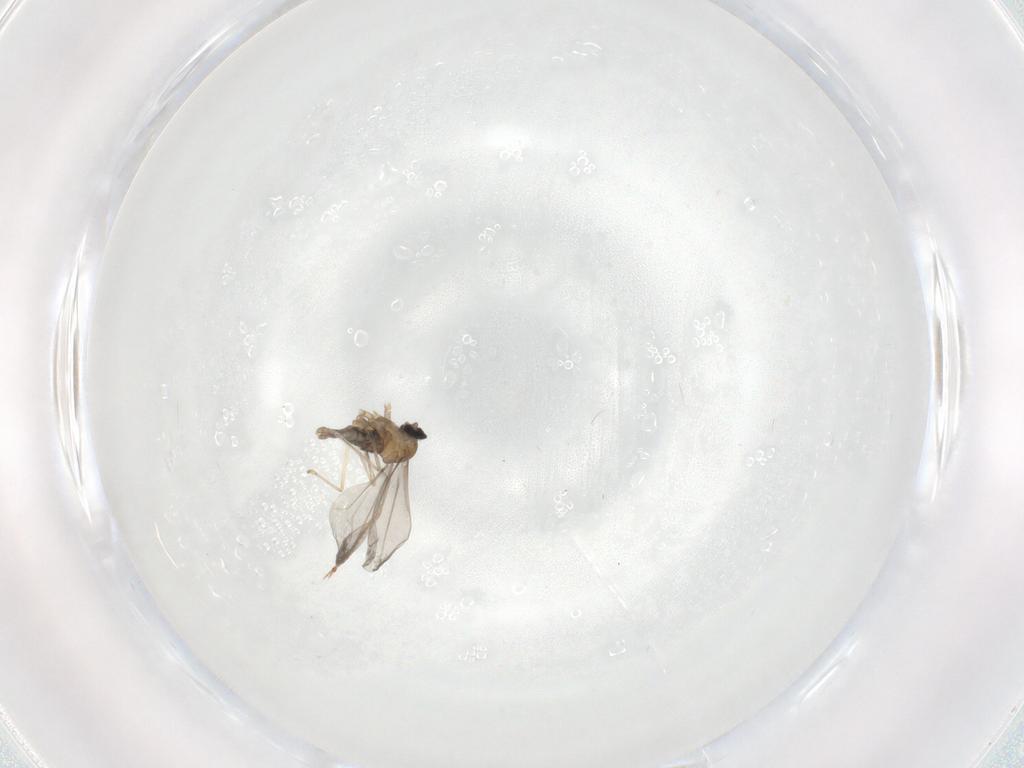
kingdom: Animalia
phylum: Arthropoda
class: Insecta
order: Diptera
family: Cecidomyiidae
